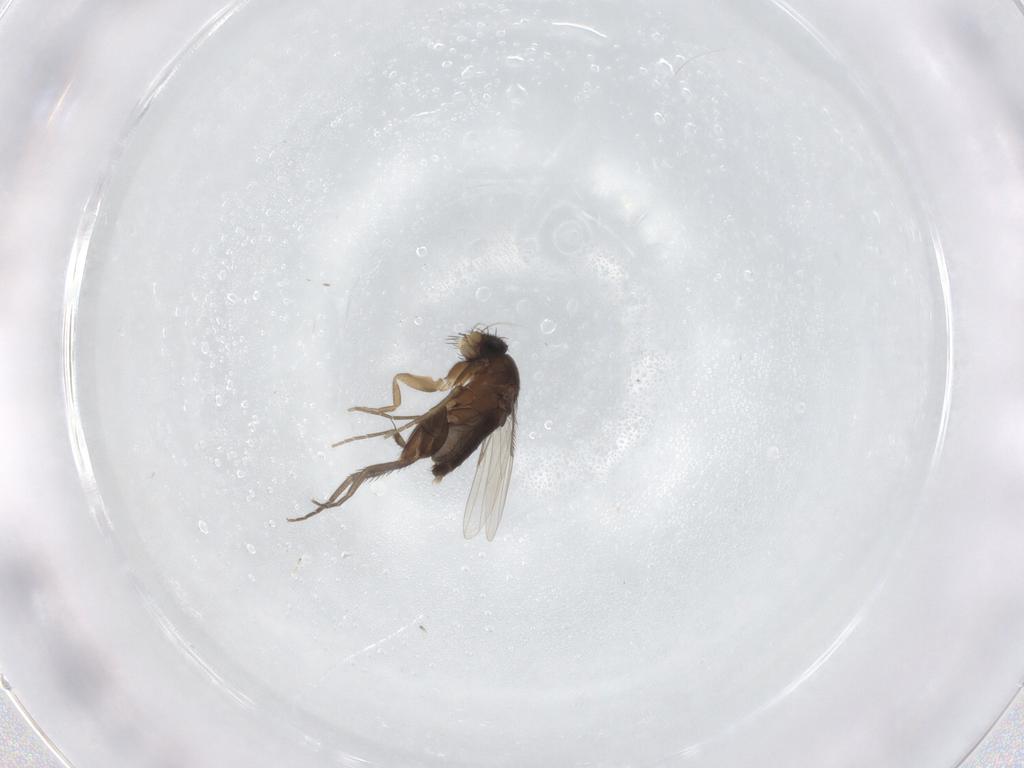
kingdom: Animalia
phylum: Arthropoda
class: Insecta
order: Diptera
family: Phoridae
